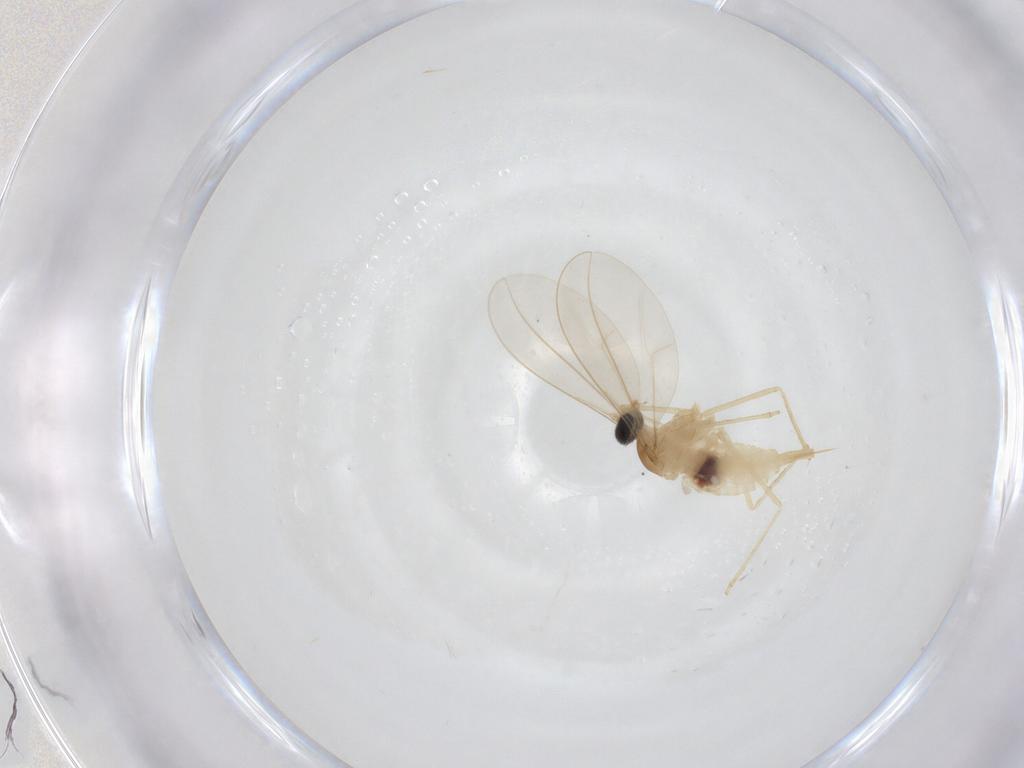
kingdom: Animalia
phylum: Arthropoda
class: Insecta
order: Diptera
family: Cecidomyiidae
